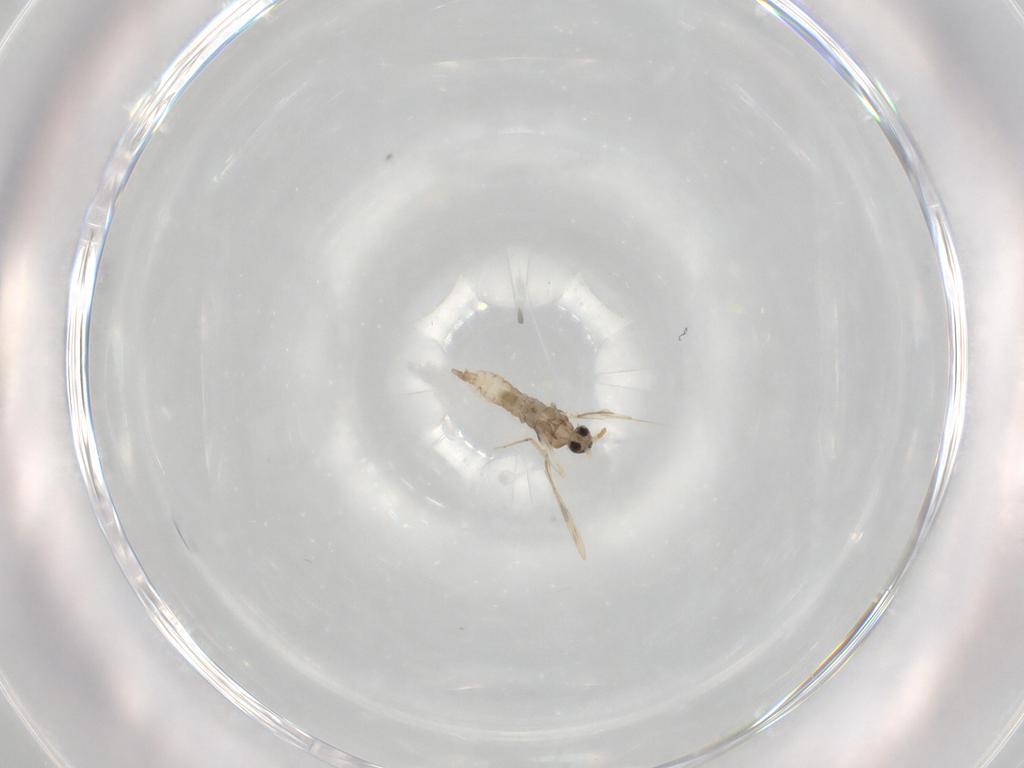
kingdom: Animalia
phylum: Arthropoda
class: Insecta
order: Diptera
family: Cecidomyiidae
